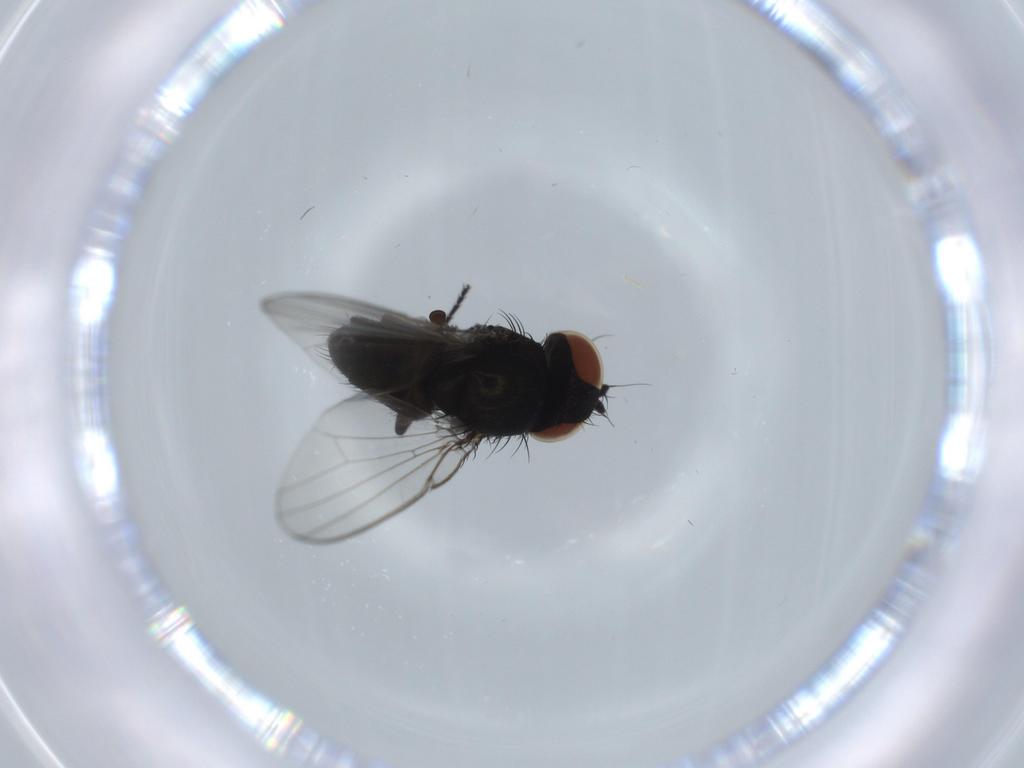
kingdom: Animalia
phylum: Arthropoda
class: Insecta
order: Diptera
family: Milichiidae
